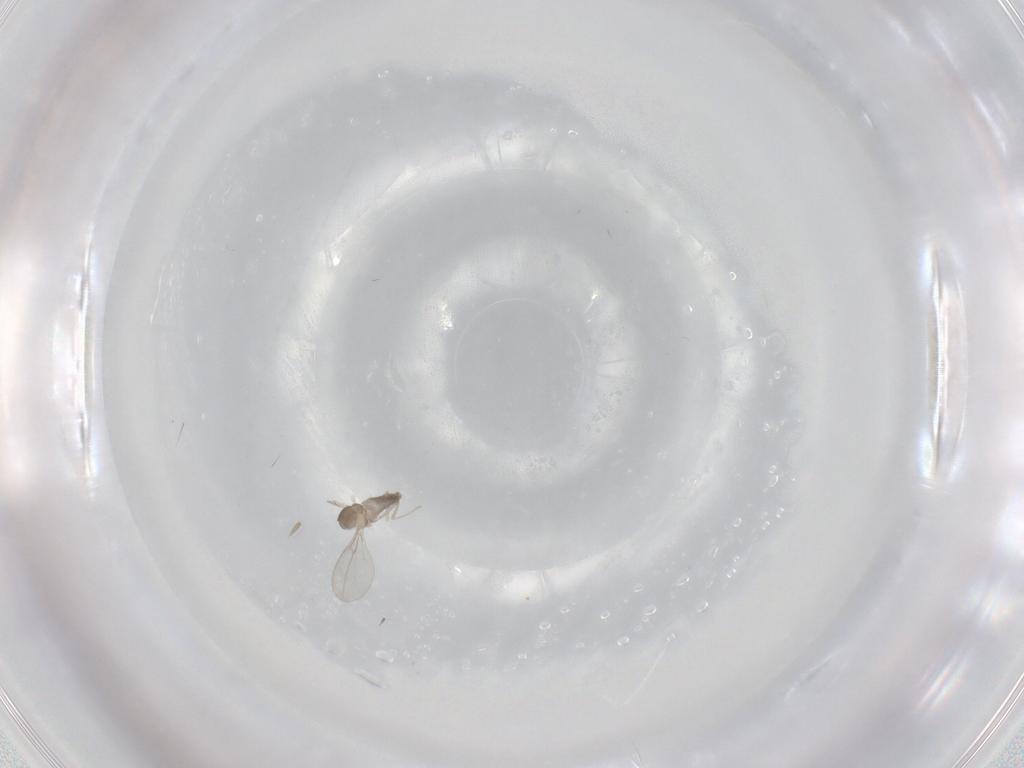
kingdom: Animalia
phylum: Arthropoda
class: Insecta
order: Diptera
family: Cecidomyiidae
